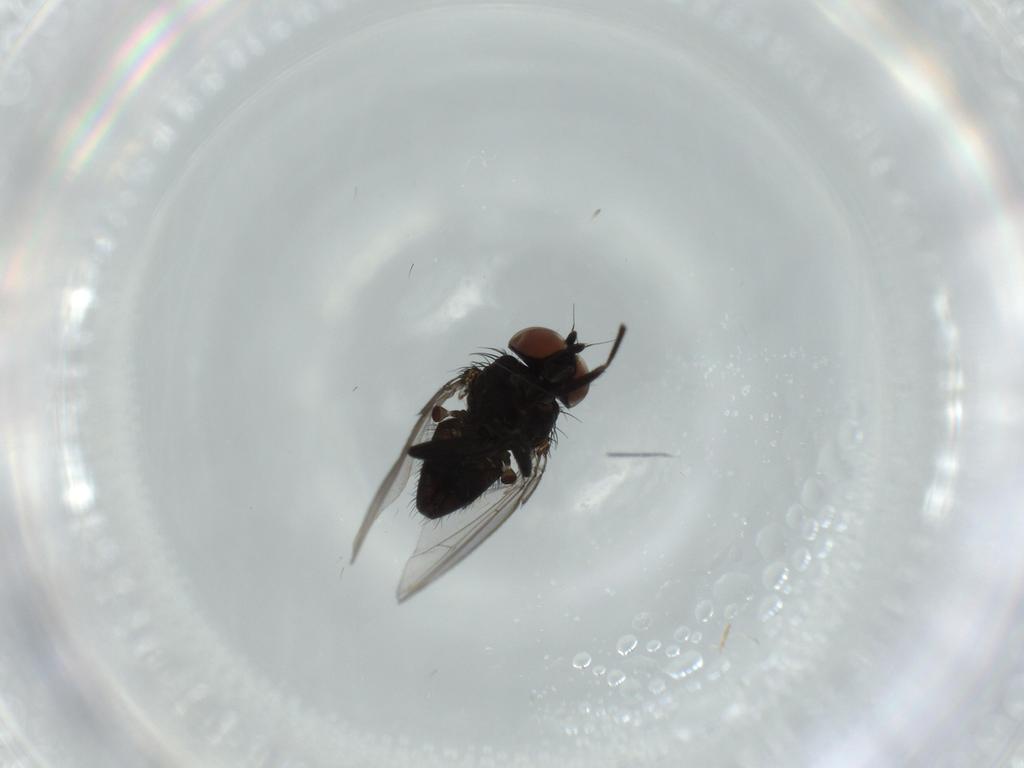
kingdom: Animalia
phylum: Arthropoda
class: Insecta
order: Diptera
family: Milichiidae
